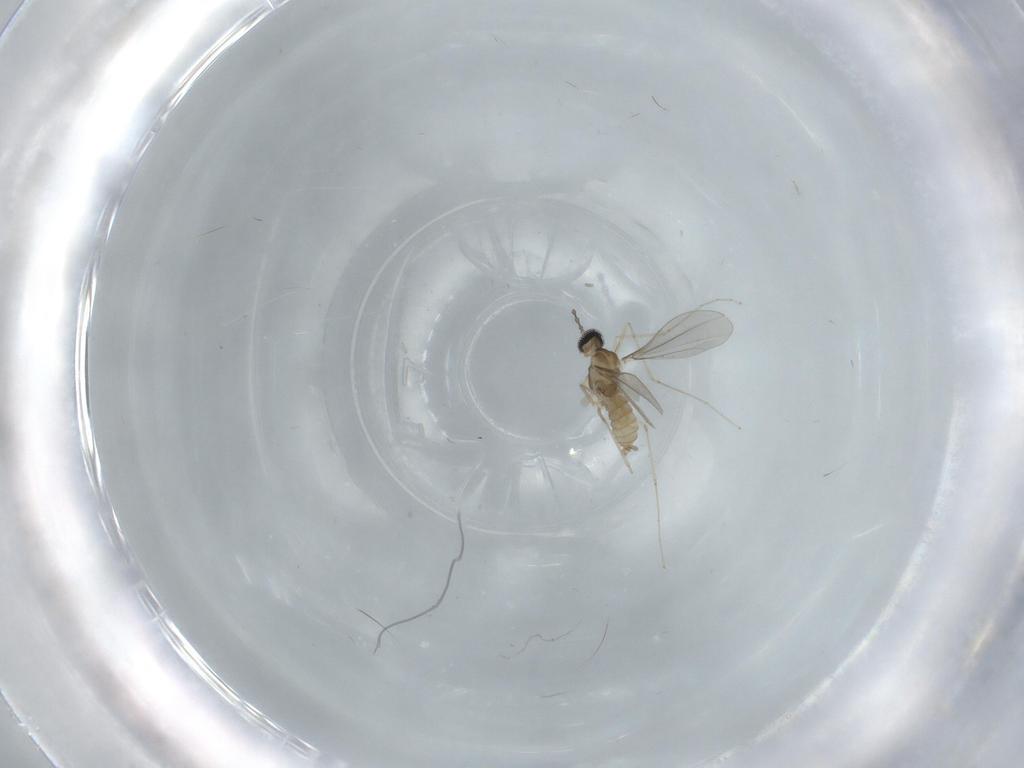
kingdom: Animalia
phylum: Arthropoda
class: Insecta
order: Diptera
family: Cecidomyiidae
